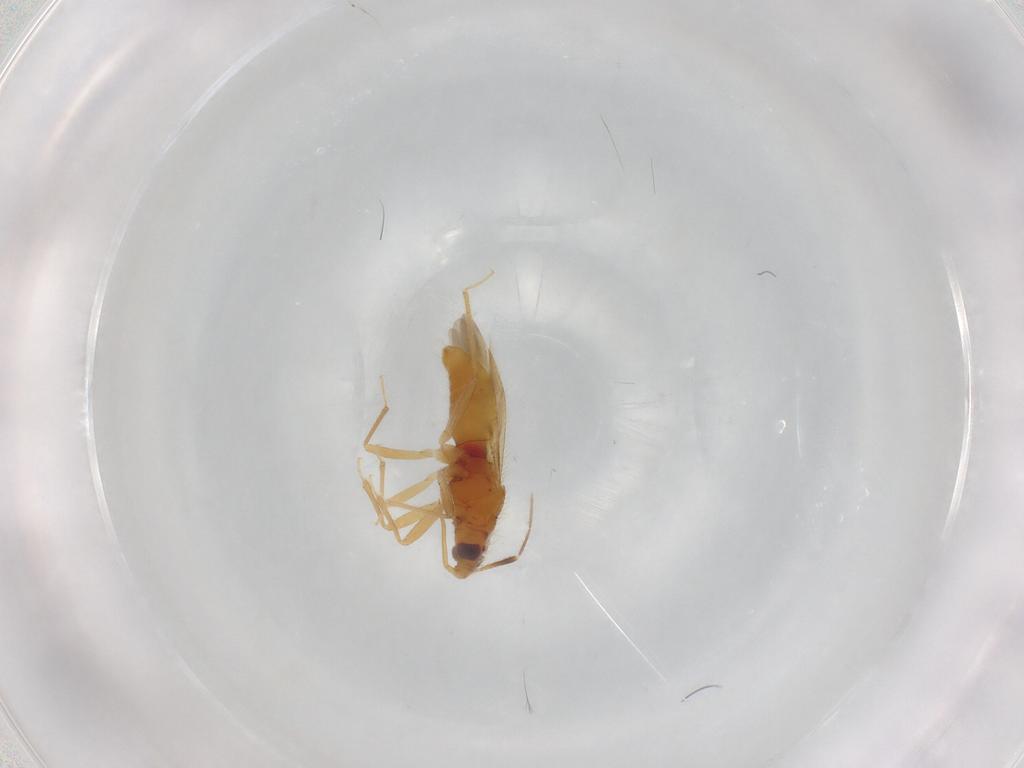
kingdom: Animalia
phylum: Arthropoda
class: Insecta
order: Hemiptera
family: Anthocoridae
